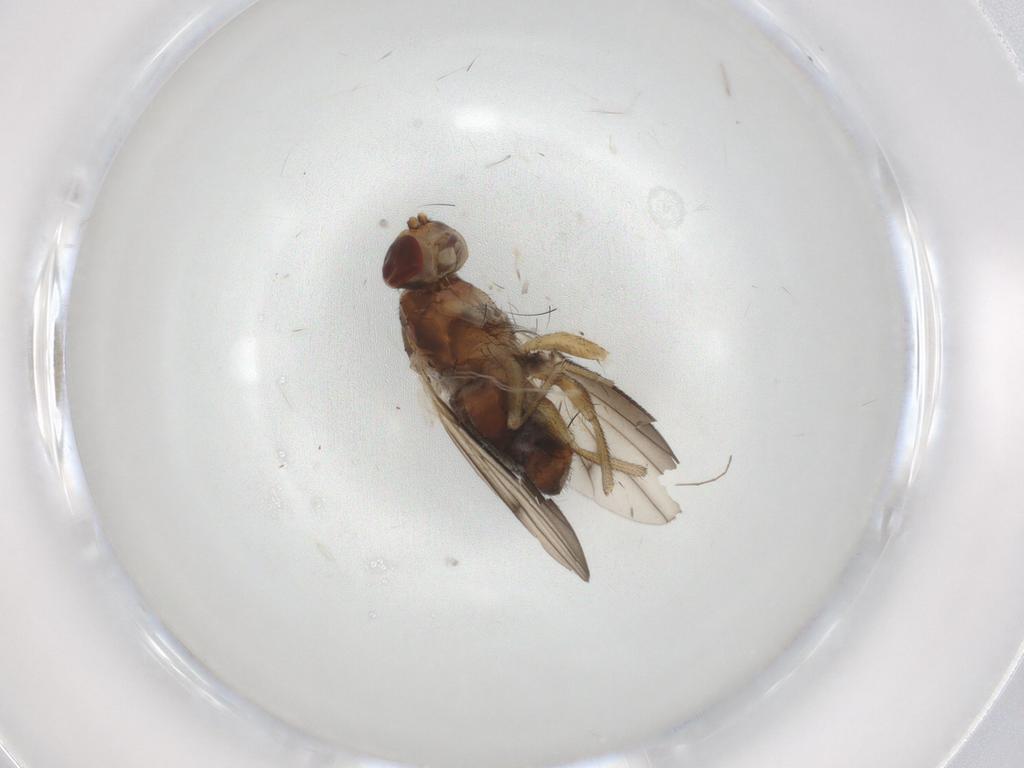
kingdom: Animalia
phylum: Arthropoda
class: Insecta
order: Diptera
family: Heleomyzidae
